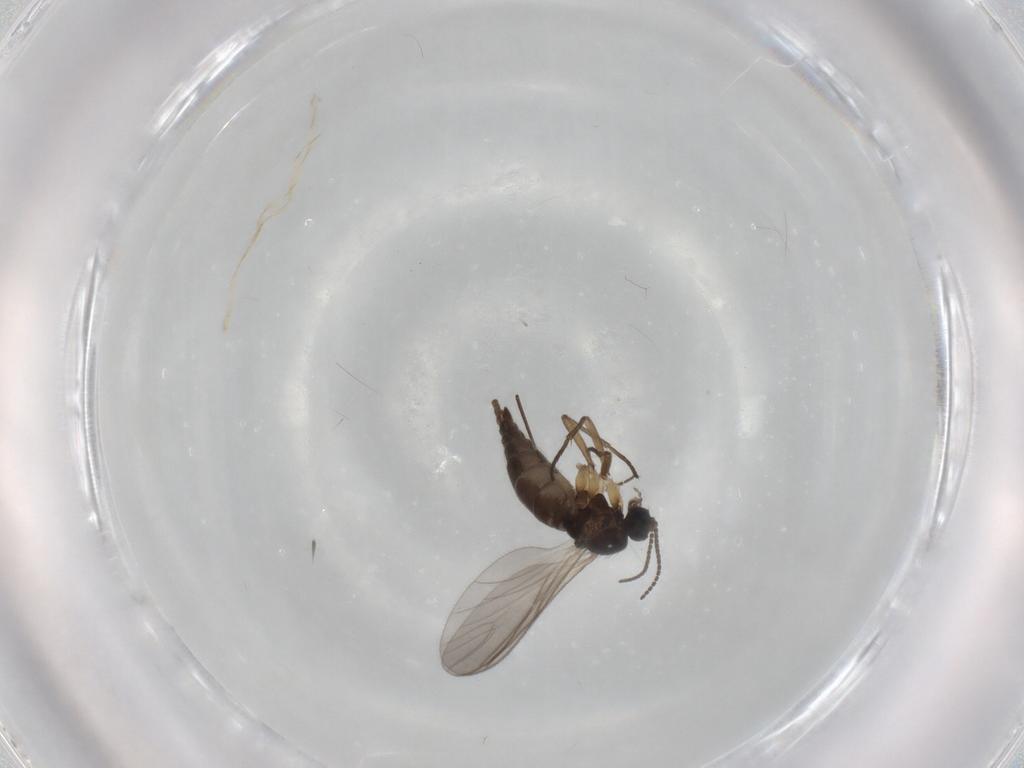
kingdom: Animalia
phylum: Arthropoda
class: Insecta
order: Diptera
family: Sciaridae
